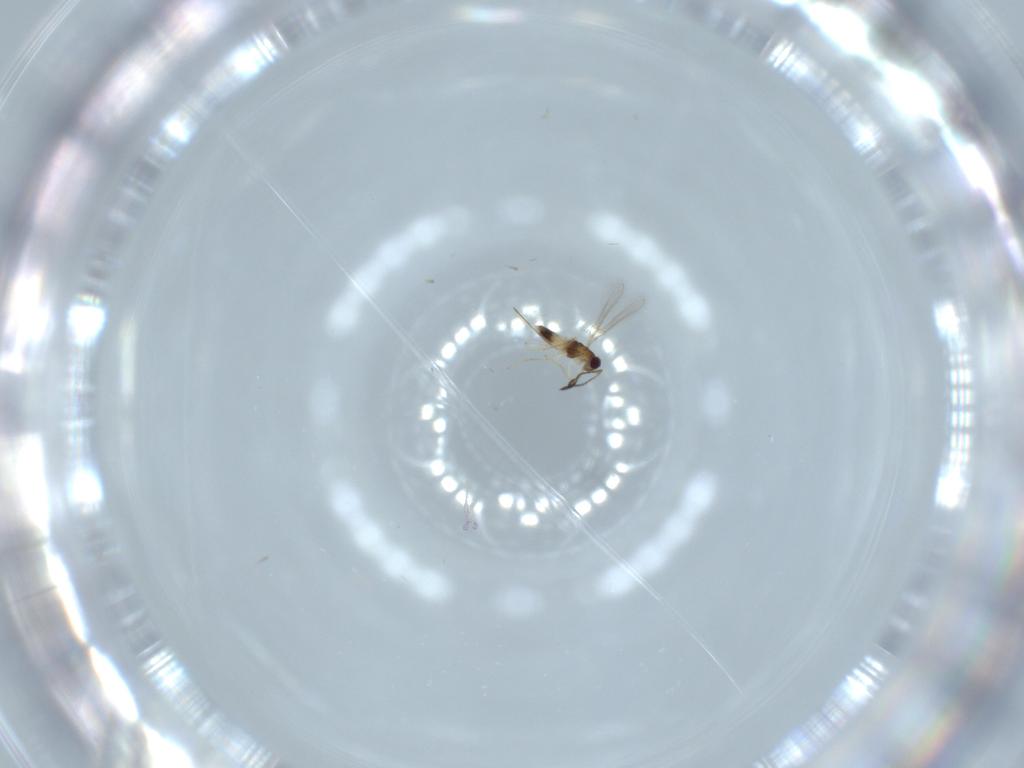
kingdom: Animalia
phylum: Arthropoda
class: Insecta
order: Hymenoptera
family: Mymaridae
